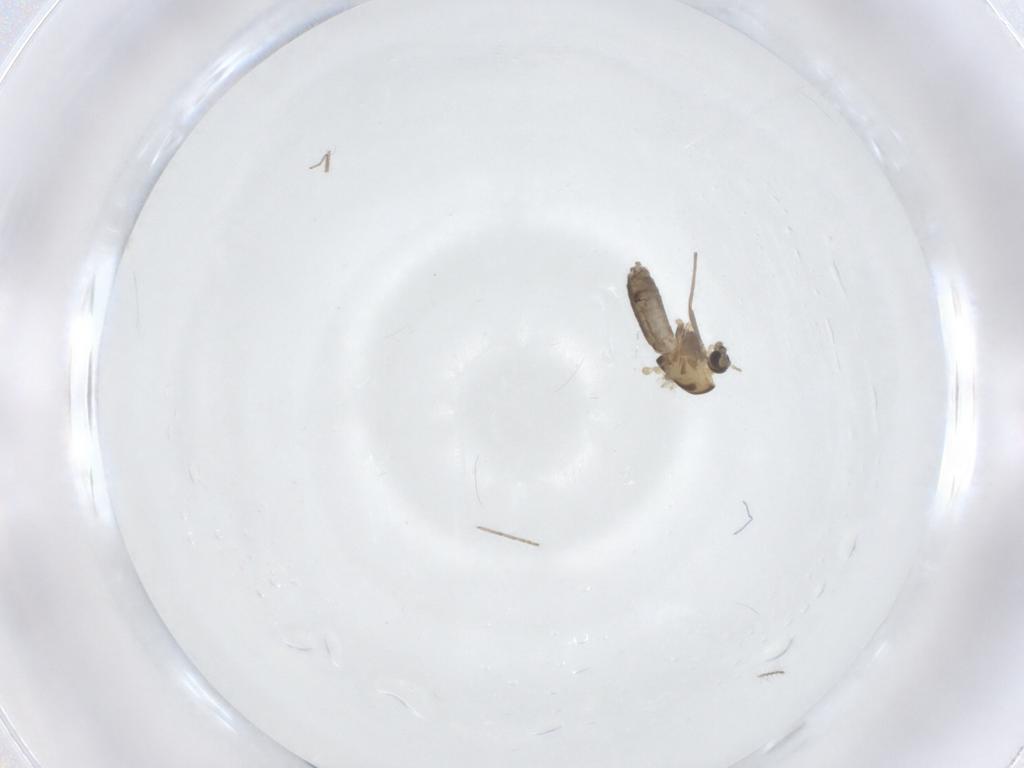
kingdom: Animalia
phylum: Arthropoda
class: Insecta
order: Diptera
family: Chironomidae
